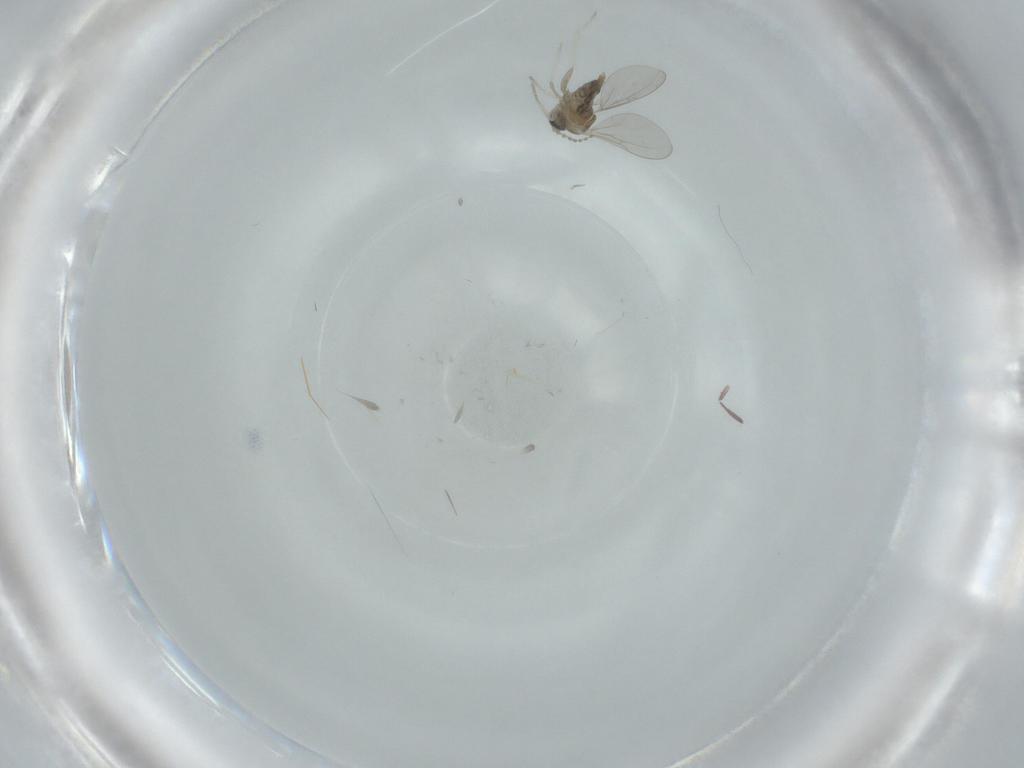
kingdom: Animalia
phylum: Arthropoda
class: Insecta
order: Diptera
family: Cecidomyiidae
